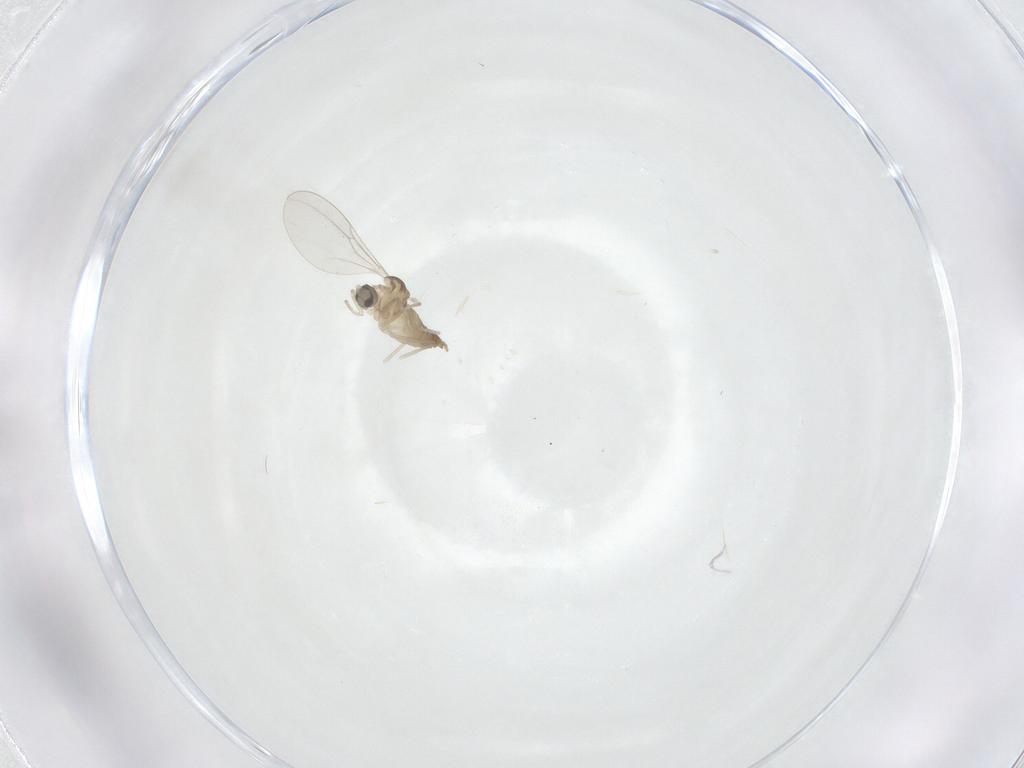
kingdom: Animalia
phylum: Arthropoda
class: Insecta
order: Diptera
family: Cecidomyiidae
